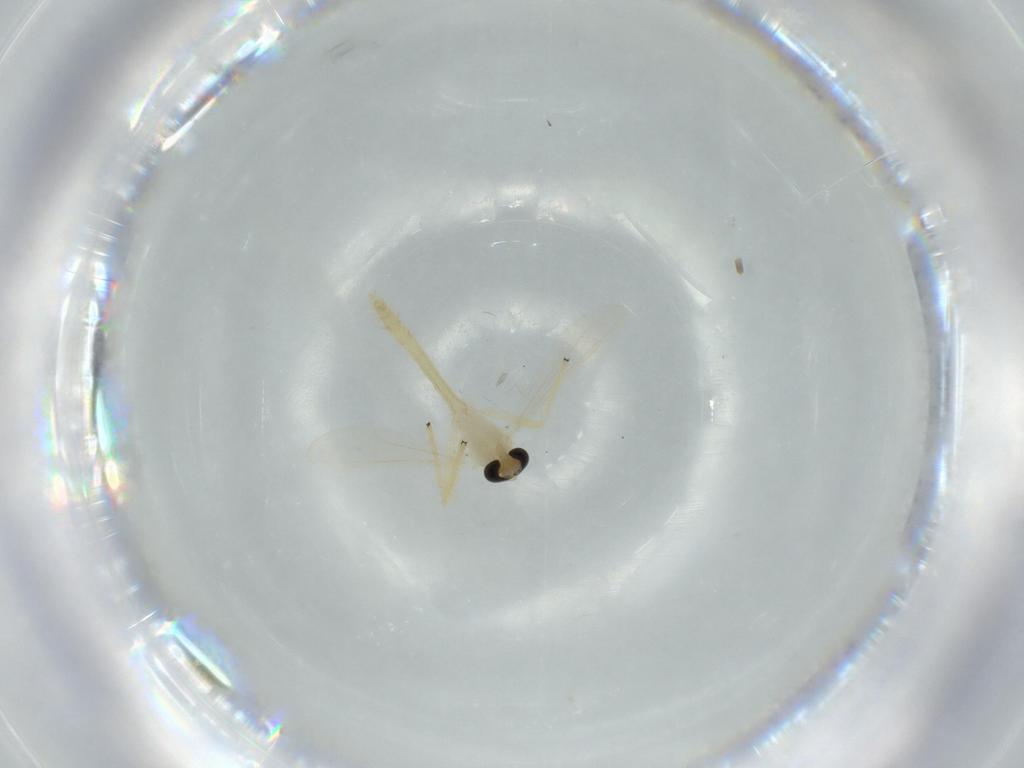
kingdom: Animalia
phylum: Arthropoda
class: Insecta
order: Diptera
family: Chironomidae
